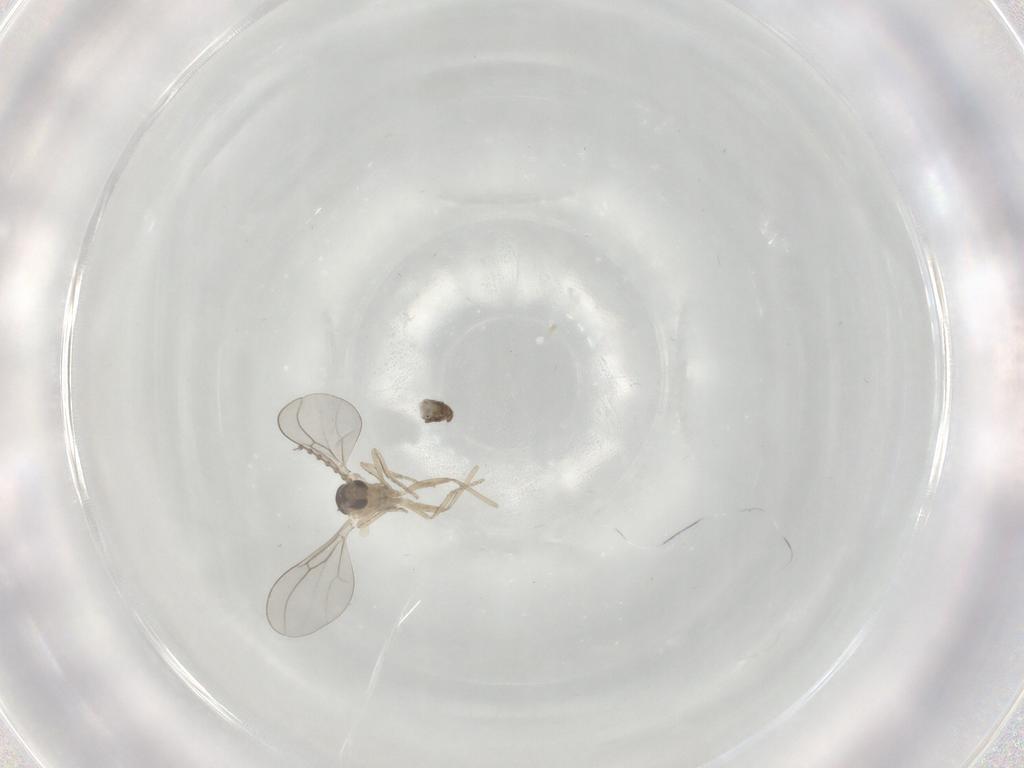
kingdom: Animalia
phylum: Arthropoda
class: Insecta
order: Diptera
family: Cecidomyiidae
